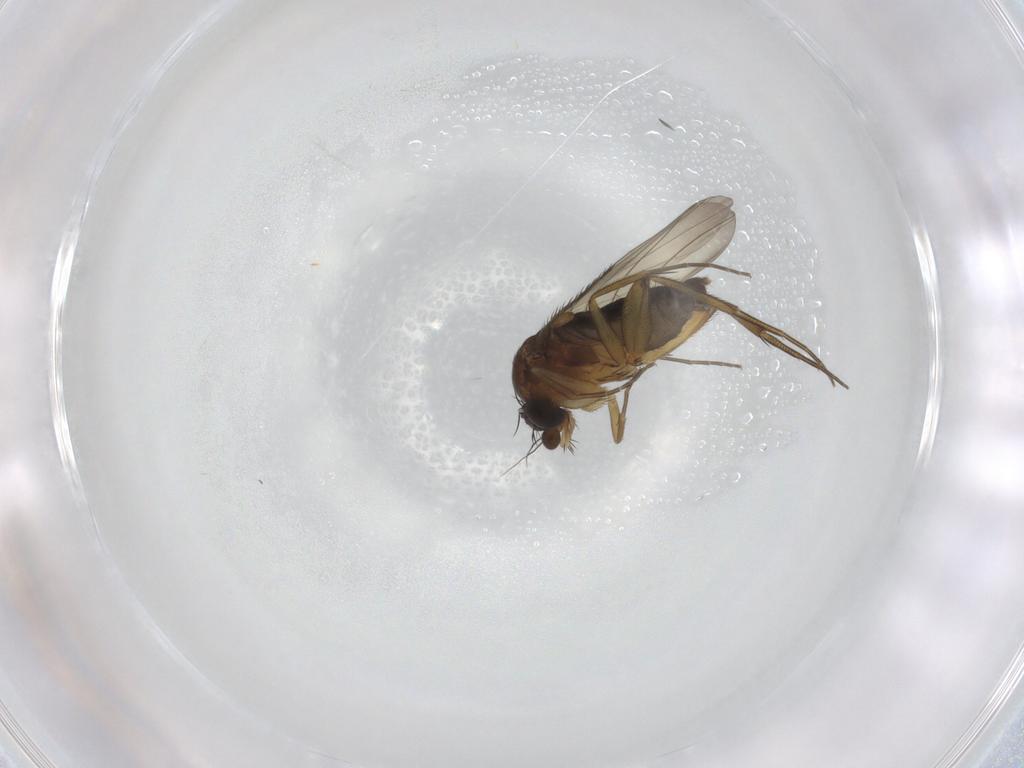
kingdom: Animalia
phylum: Arthropoda
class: Insecta
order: Diptera
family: Phoridae
